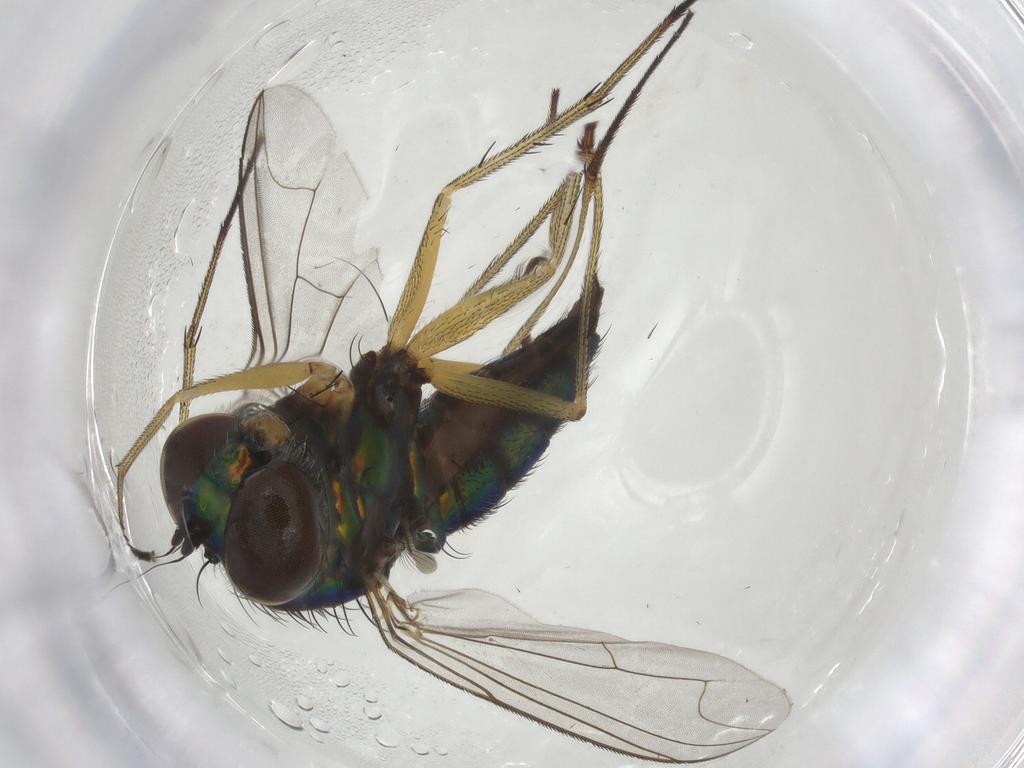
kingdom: Animalia
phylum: Arthropoda
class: Insecta
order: Diptera
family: Dolichopodidae
